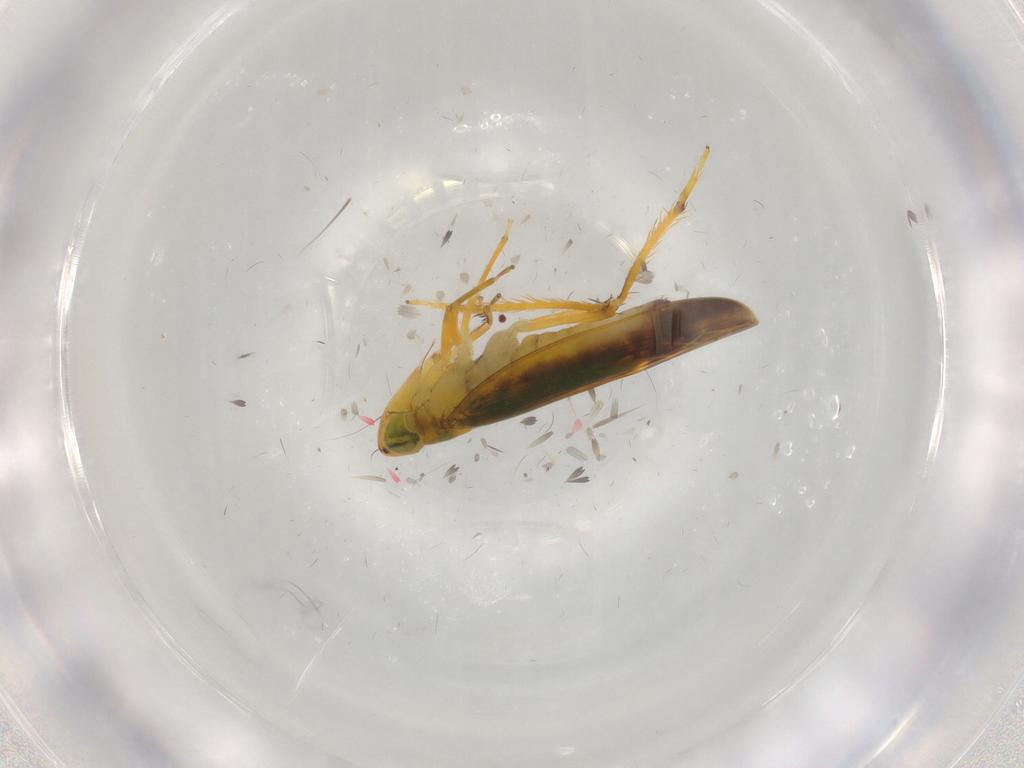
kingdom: Animalia
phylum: Arthropoda
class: Insecta
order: Hemiptera
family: Cicadellidae
